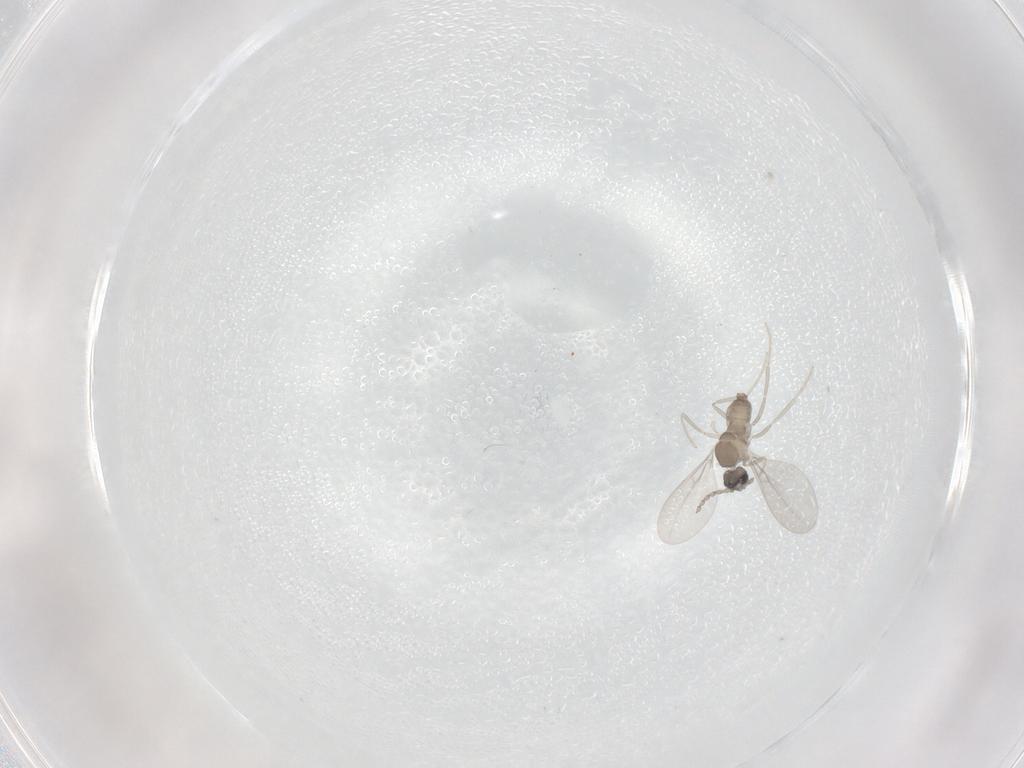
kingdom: Animalia
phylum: Arthropoda
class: Insecta
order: Diptera
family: Cecidomyiidae
